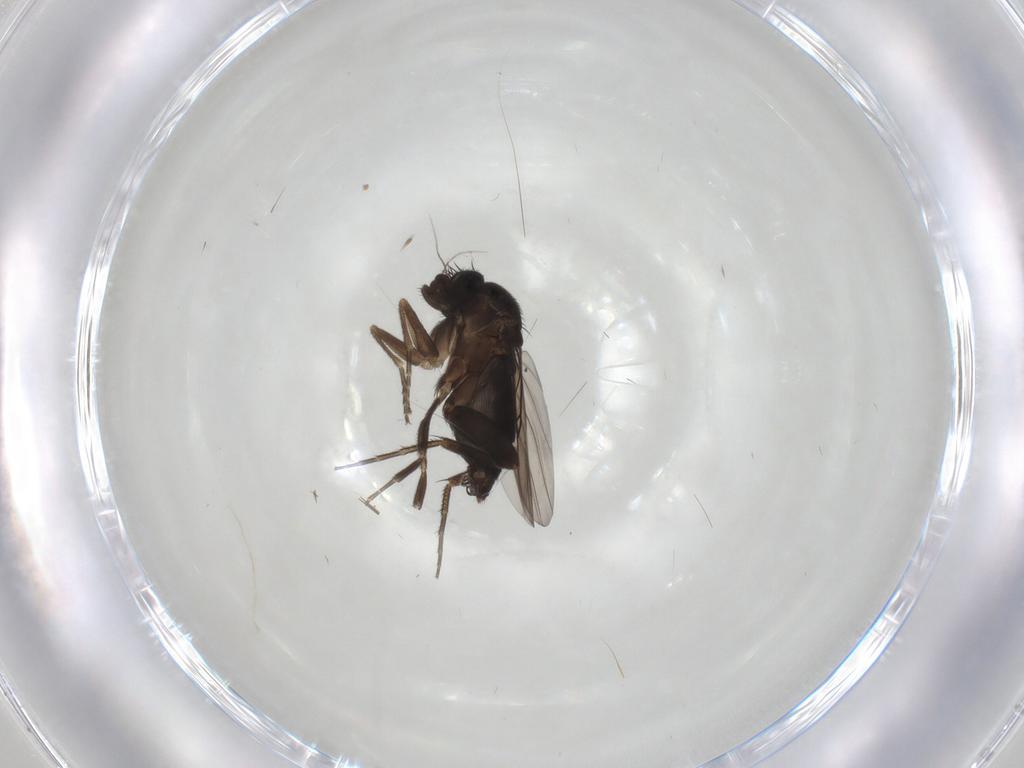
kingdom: Animalia
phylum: Arthropoda
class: Insecta
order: Diptera
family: Phoridae
